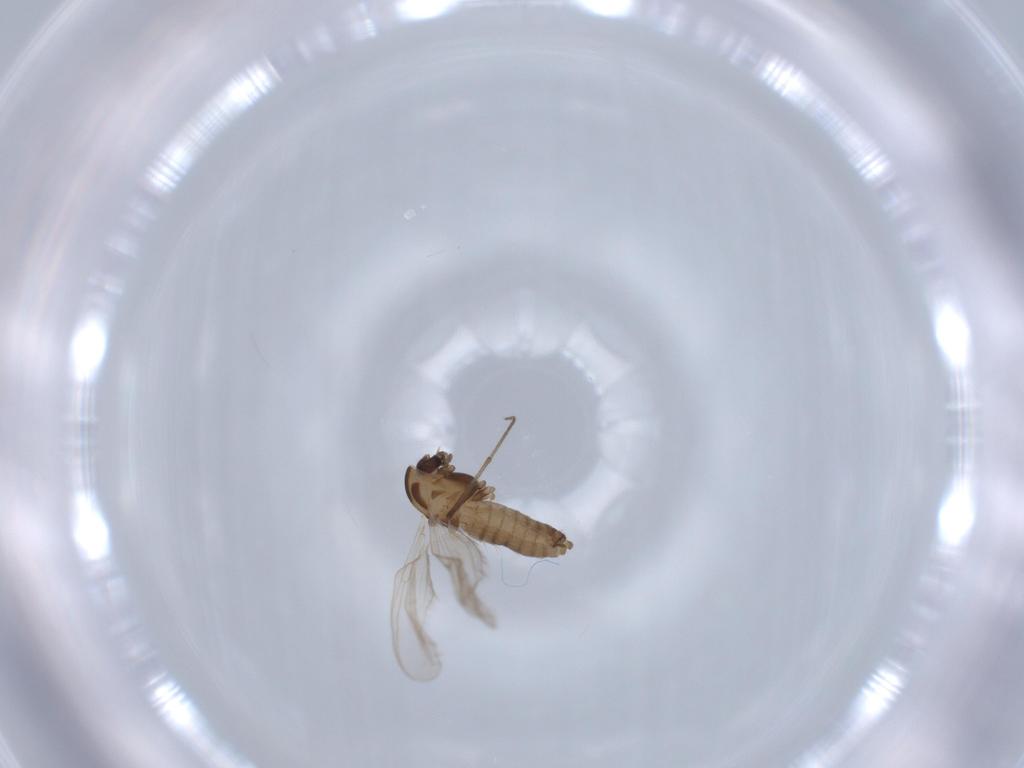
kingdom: Animalia
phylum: Arthropoda
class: Insecta
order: Diptera
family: Chironomidae
